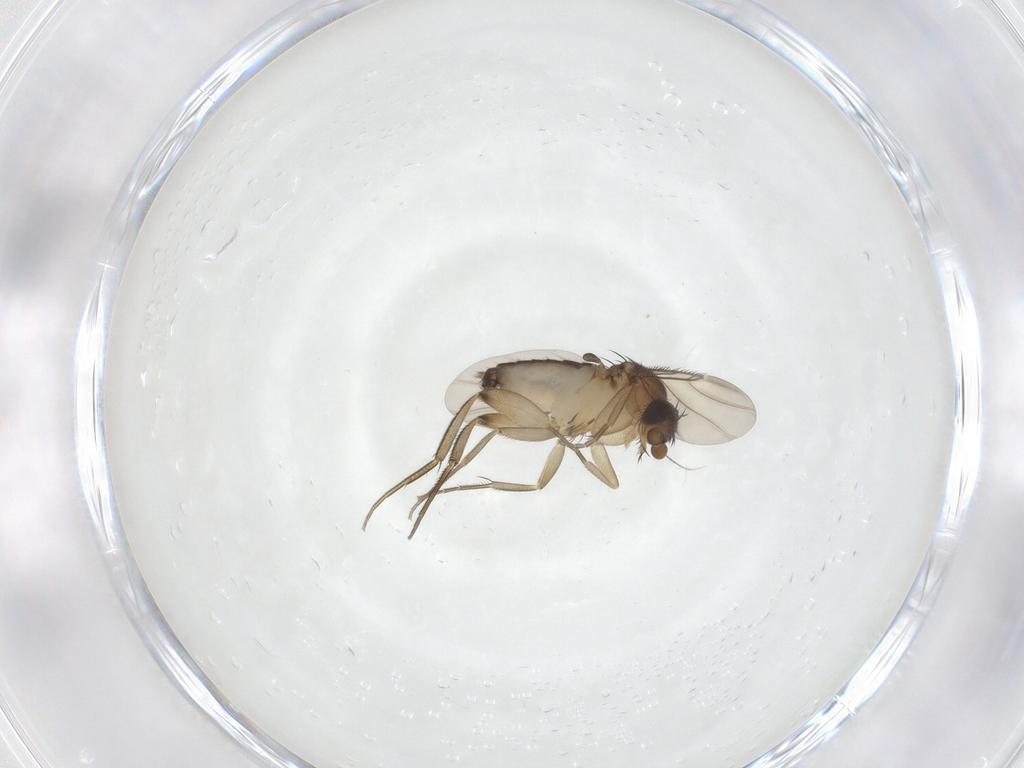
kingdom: Animalia
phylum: Arthropoda
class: Insecta
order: Diptera
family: Phoridae
